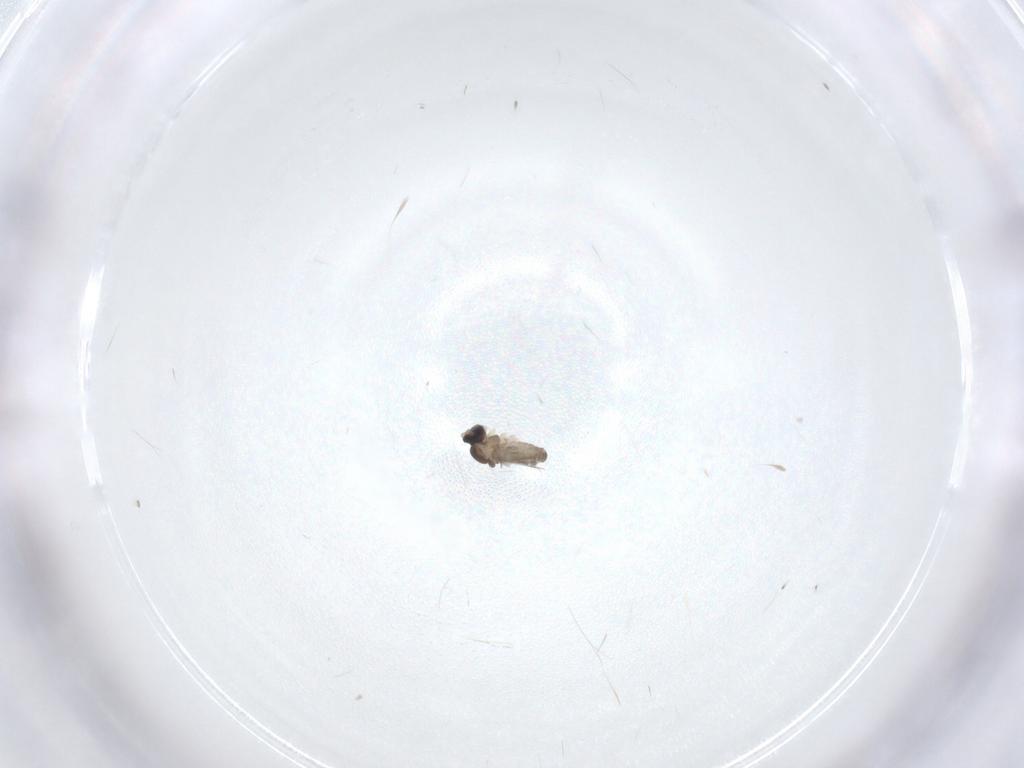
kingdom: Animalia
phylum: Arthropoda
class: Insecta
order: Diptera
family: Cecidomyiidae
